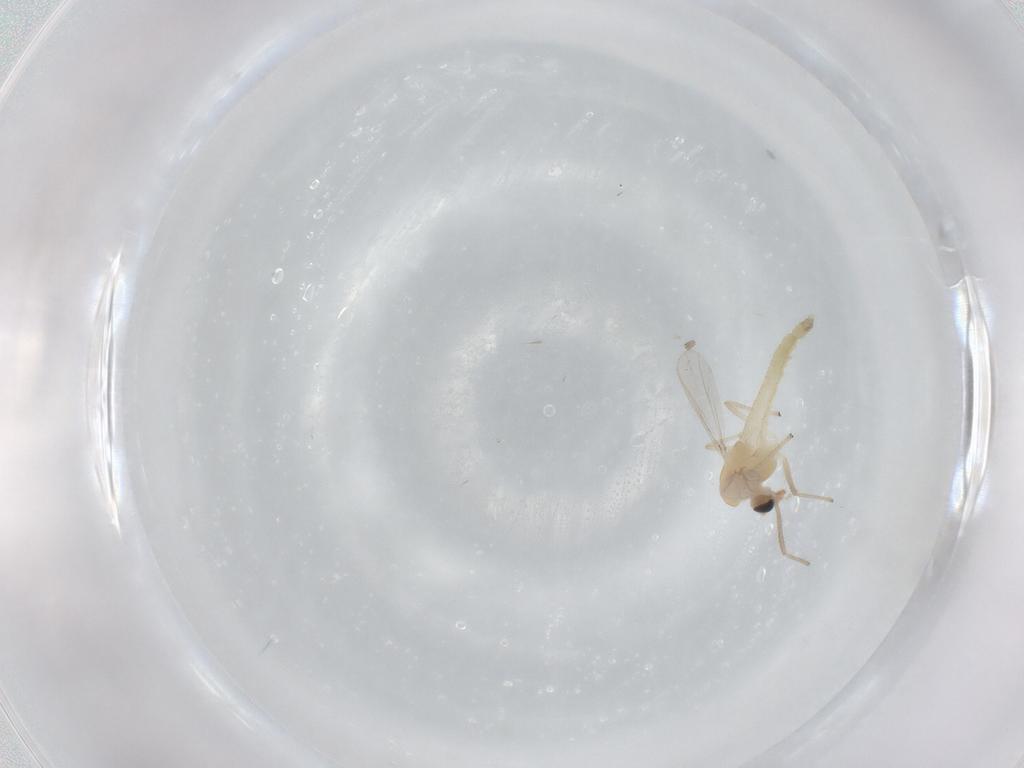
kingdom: Animalia
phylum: Arthropoda
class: Insecta
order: Diptera
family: Chironomidae
